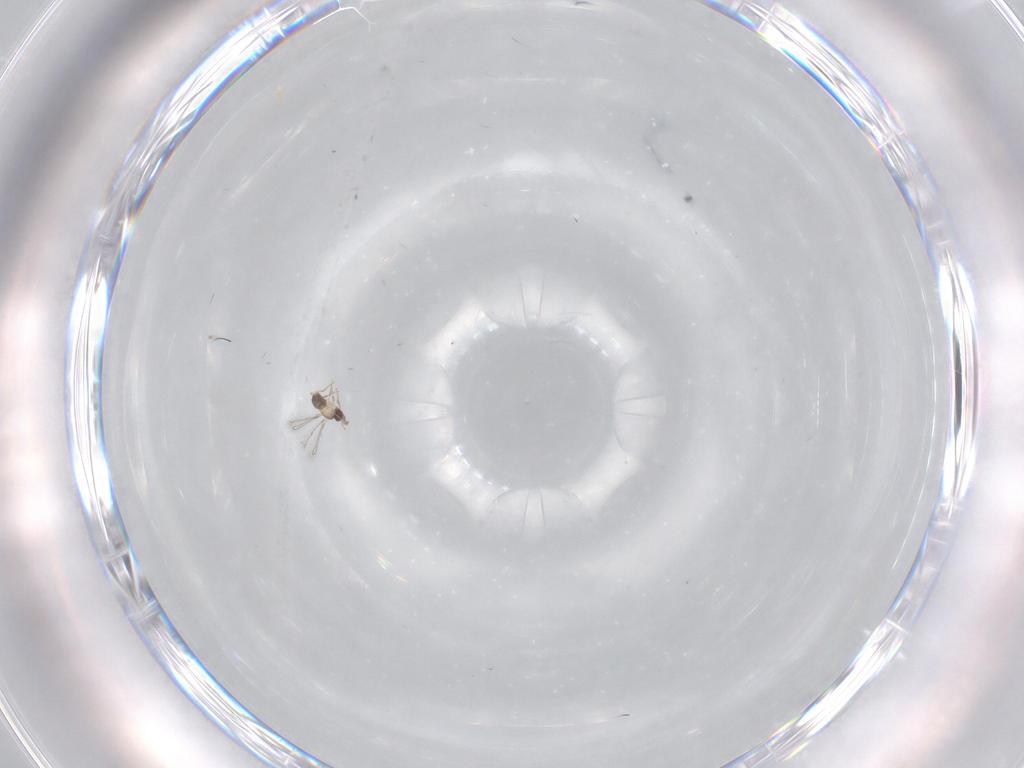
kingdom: Animalia
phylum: Arthropoda
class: Insecta
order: Hymenoptera
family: Mymaridae
